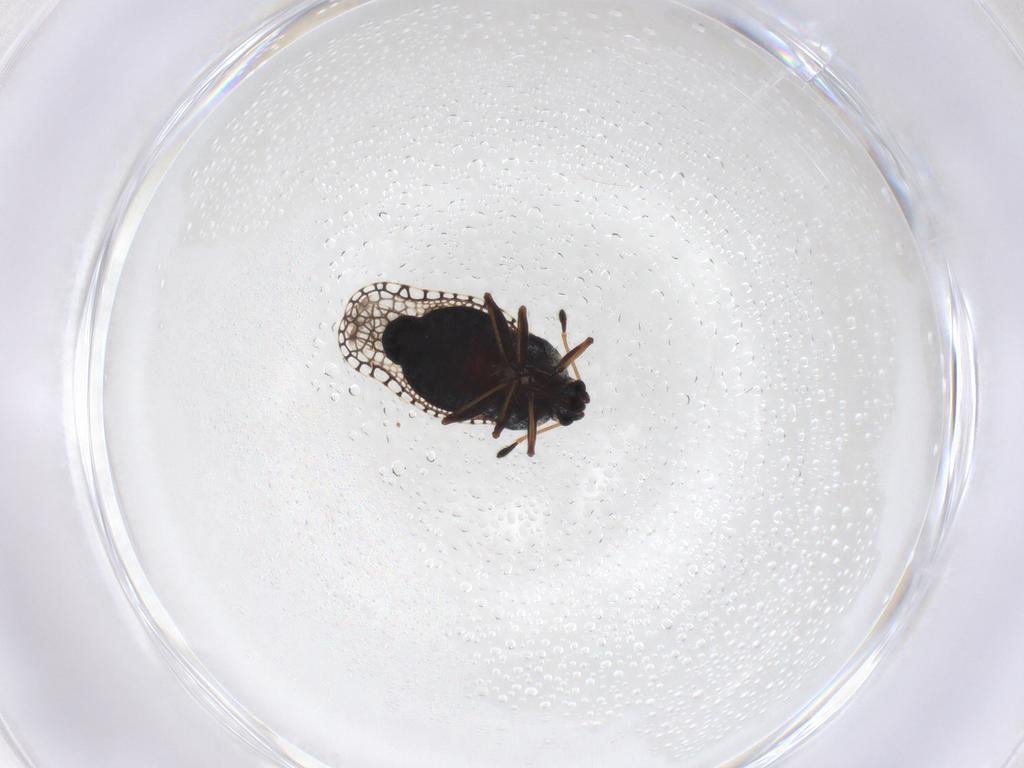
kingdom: Animalia
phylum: Arthropoda
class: Insecta
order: Hemiptera
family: Tingidae
